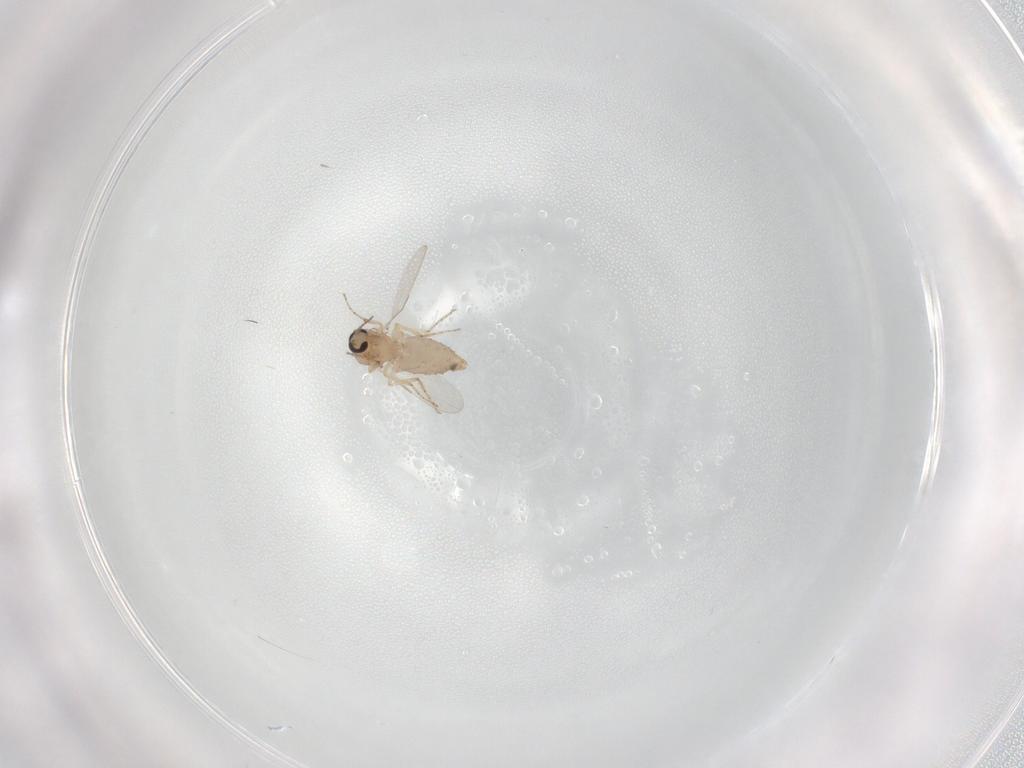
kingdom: Animalia
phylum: Arthropoda
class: Insecta
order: Diptera
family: Ceratopogonidae
